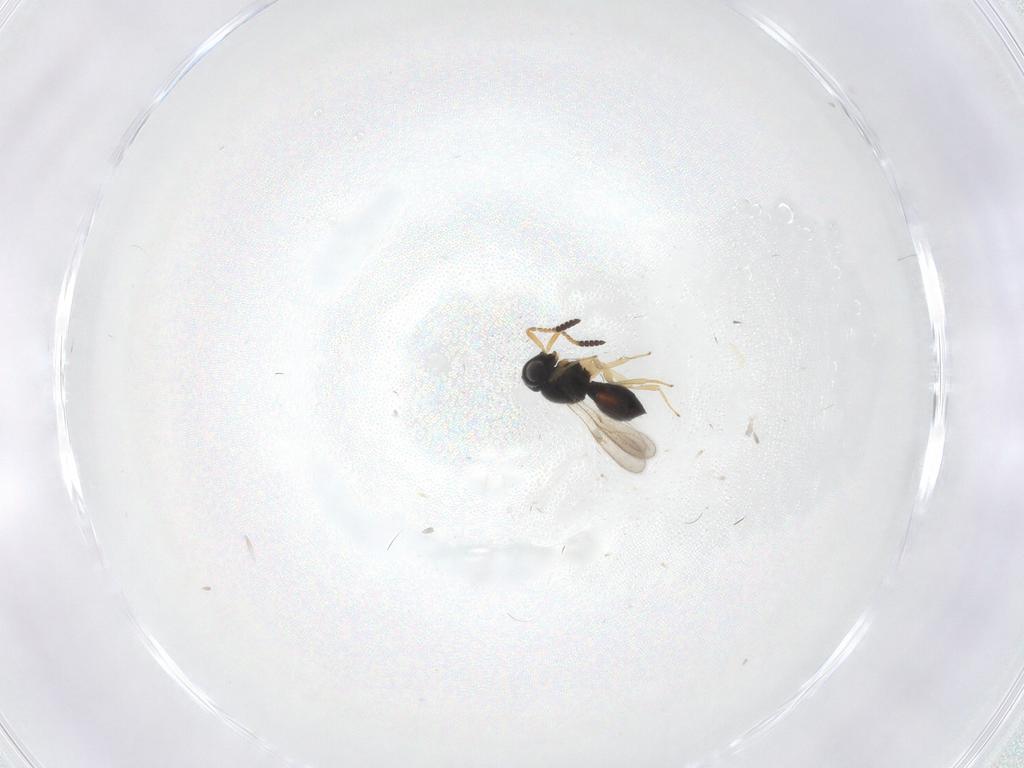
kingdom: Animalia
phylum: Arthropoda
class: Insecta
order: Hymenoptera
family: Scelionidae
